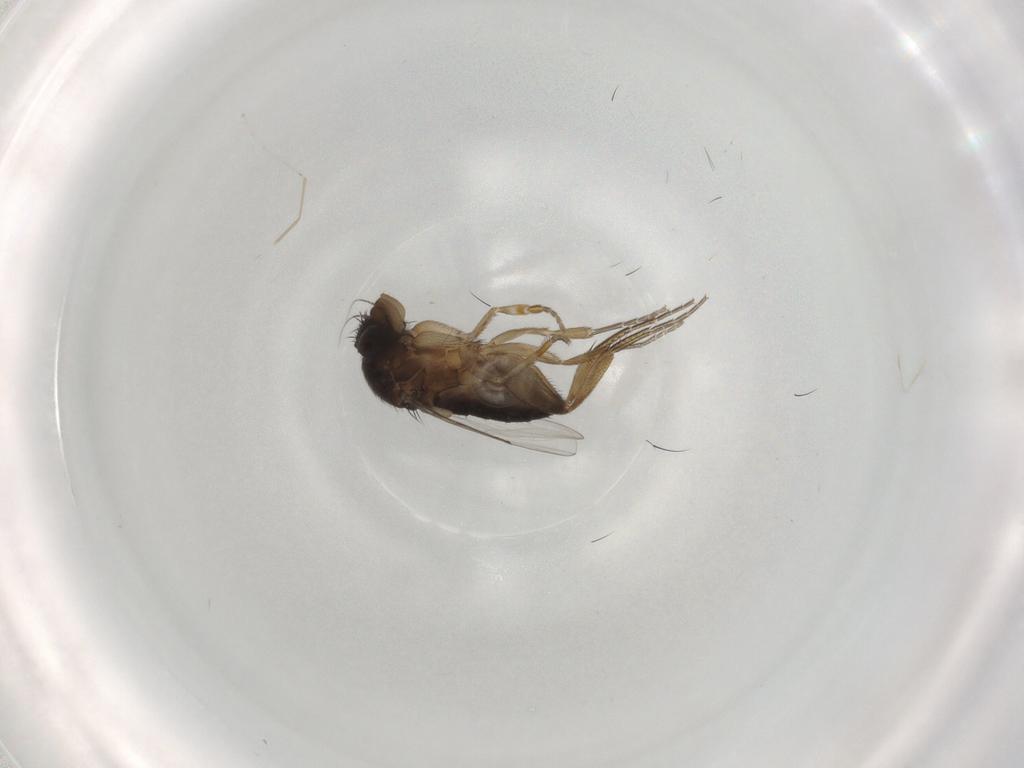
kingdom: Animalia
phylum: Arthropoda
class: Insecta
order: Diptera
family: Phoridae
